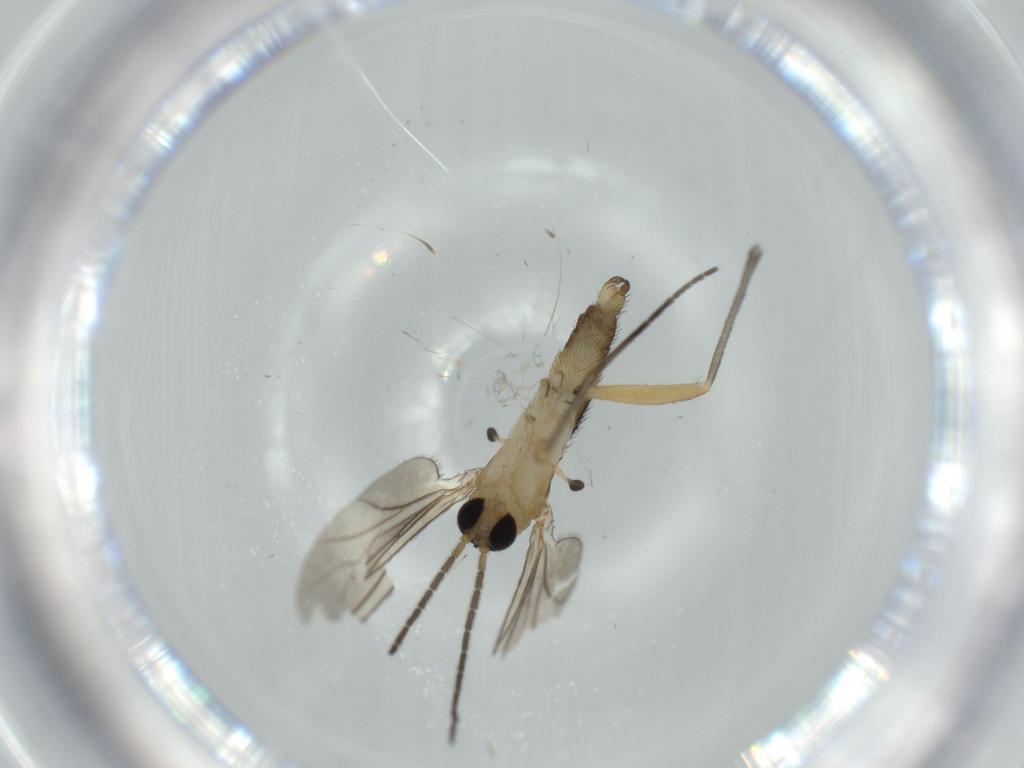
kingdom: Animalia
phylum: Arthropoda
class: Insecta
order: Diptera
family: Sciaridae
